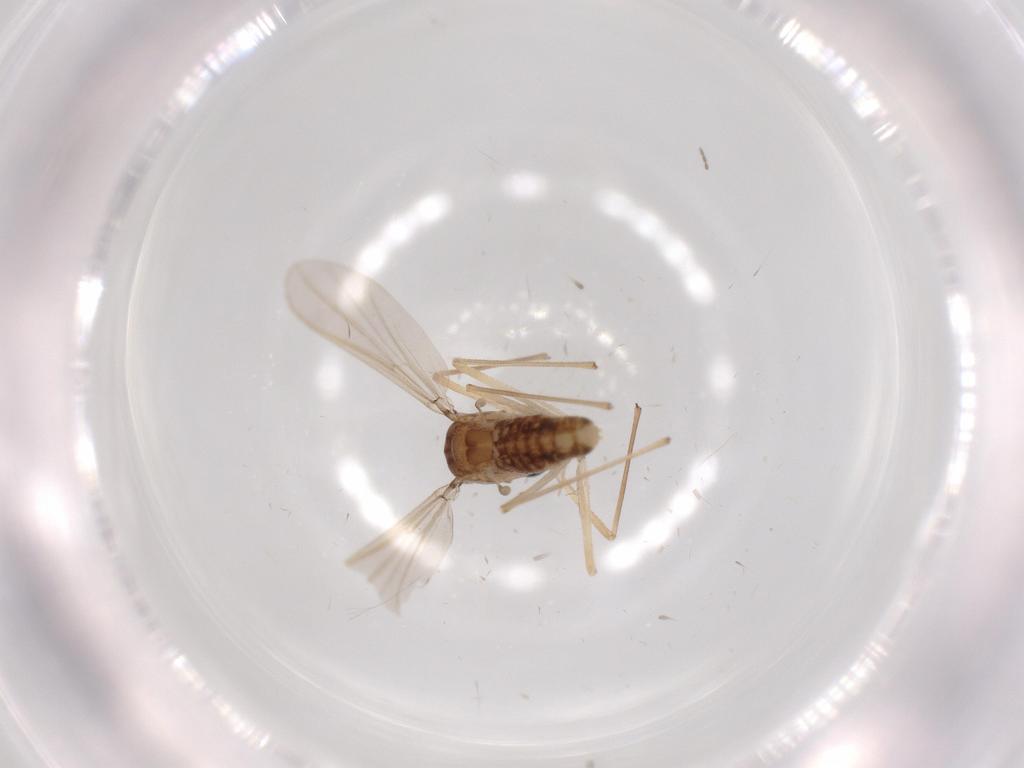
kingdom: Animalia
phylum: Arthropoda
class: Insecta
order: Diptera
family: Chironomidae
